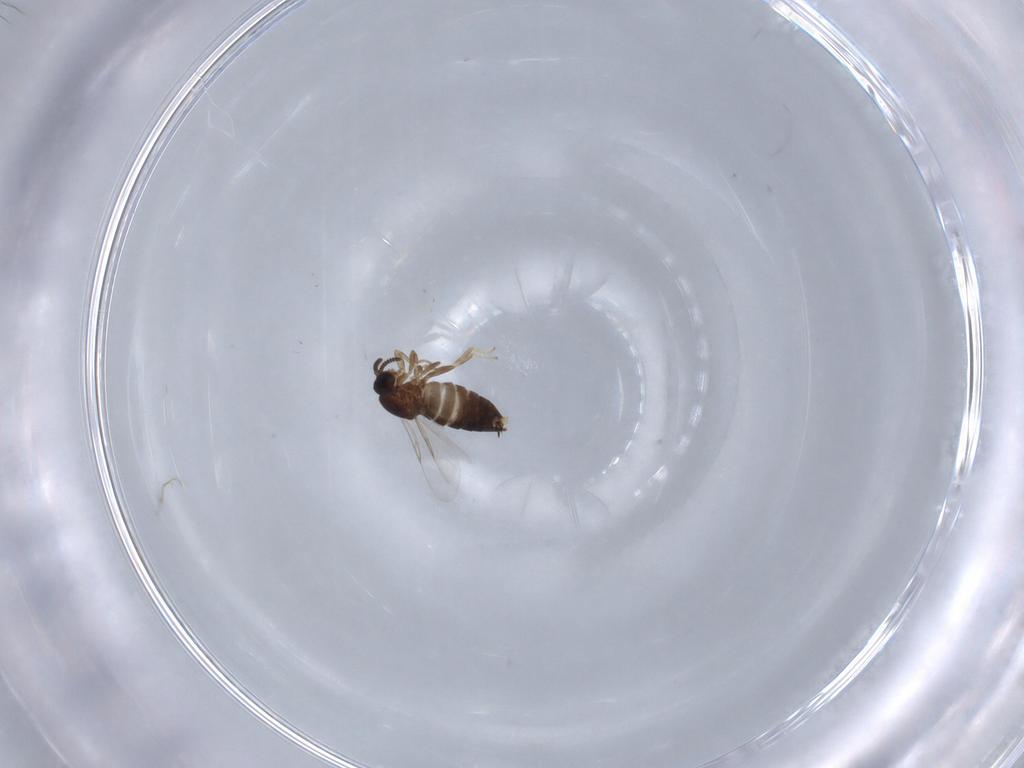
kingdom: Animalia
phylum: Arthropoda
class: Insecta
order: Diptera
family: Scatopsidae
